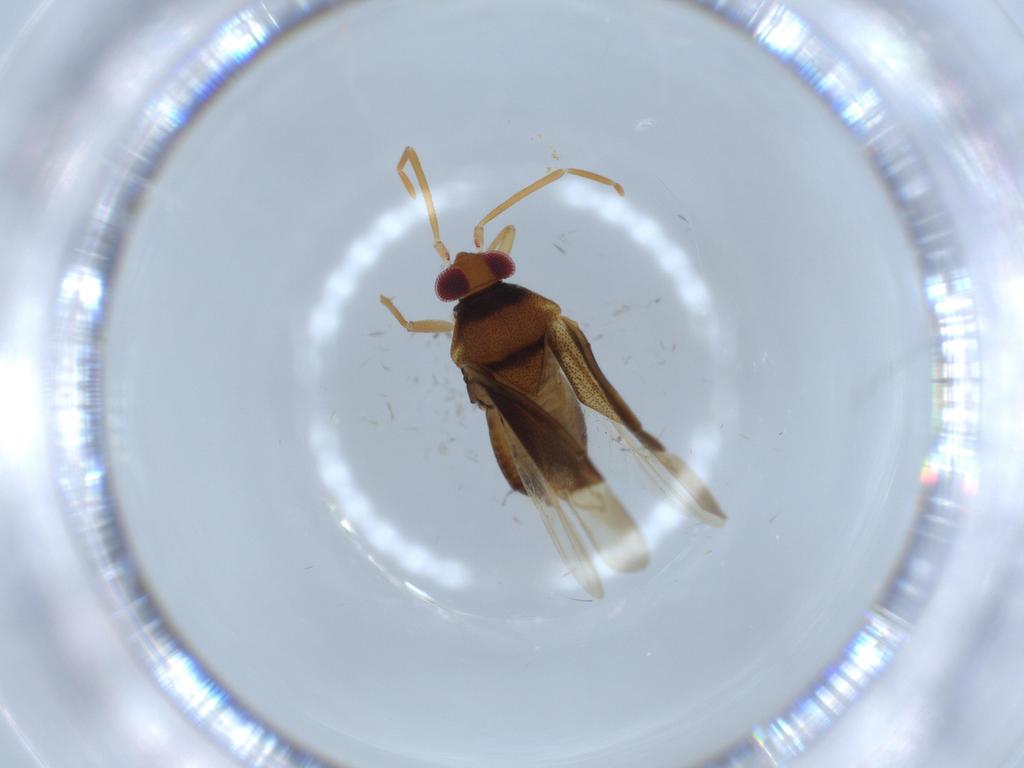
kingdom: Animalia
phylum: Arthropoda
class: Insecta
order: Hemiptera
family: Miridae
